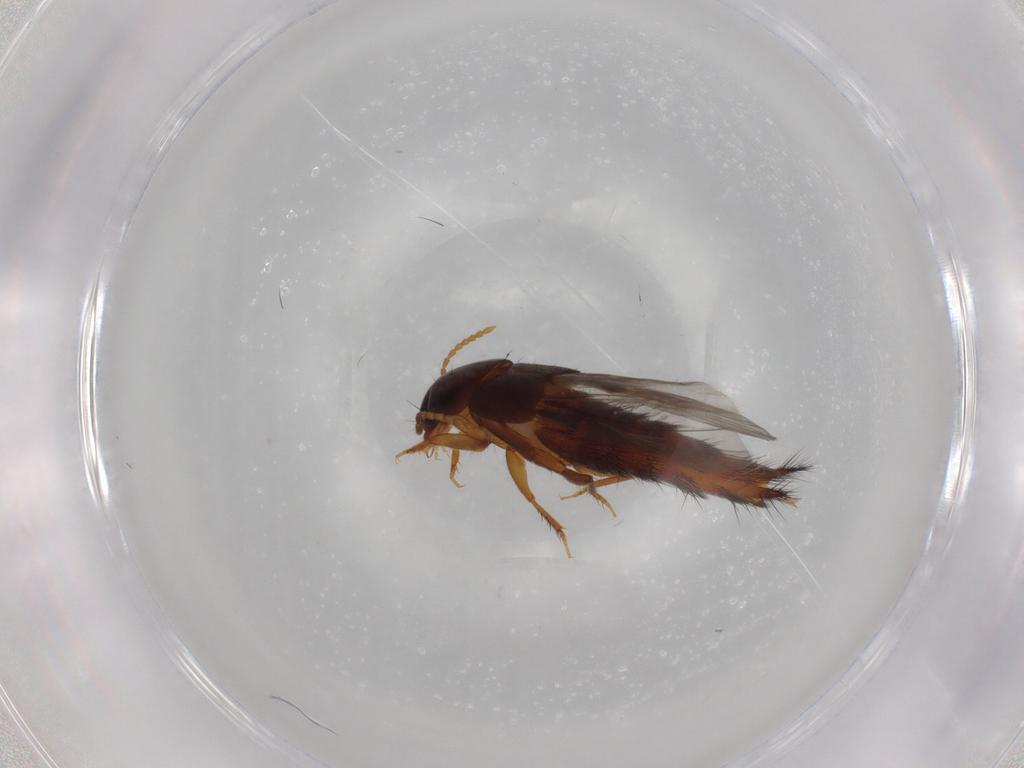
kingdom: Animalia
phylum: Arthropoda
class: Insecta
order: Coleoptera
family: Staphylinidae
